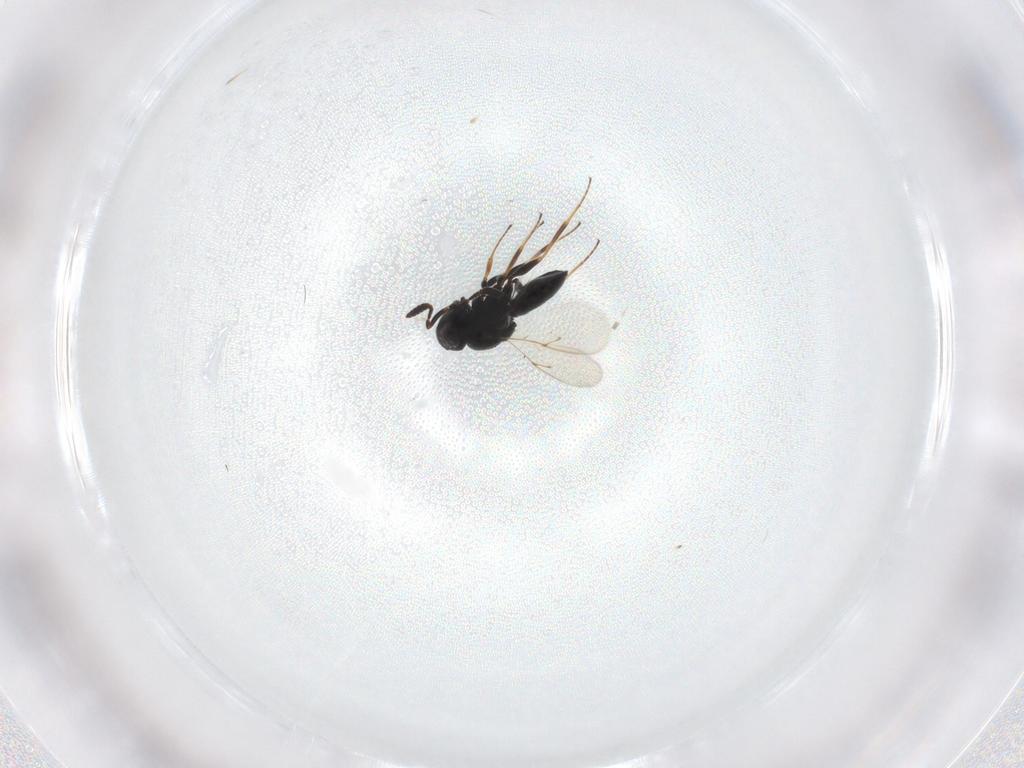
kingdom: Animalia
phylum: Arthropoda
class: Insecta
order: Hymenoptera
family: Scelionidae
